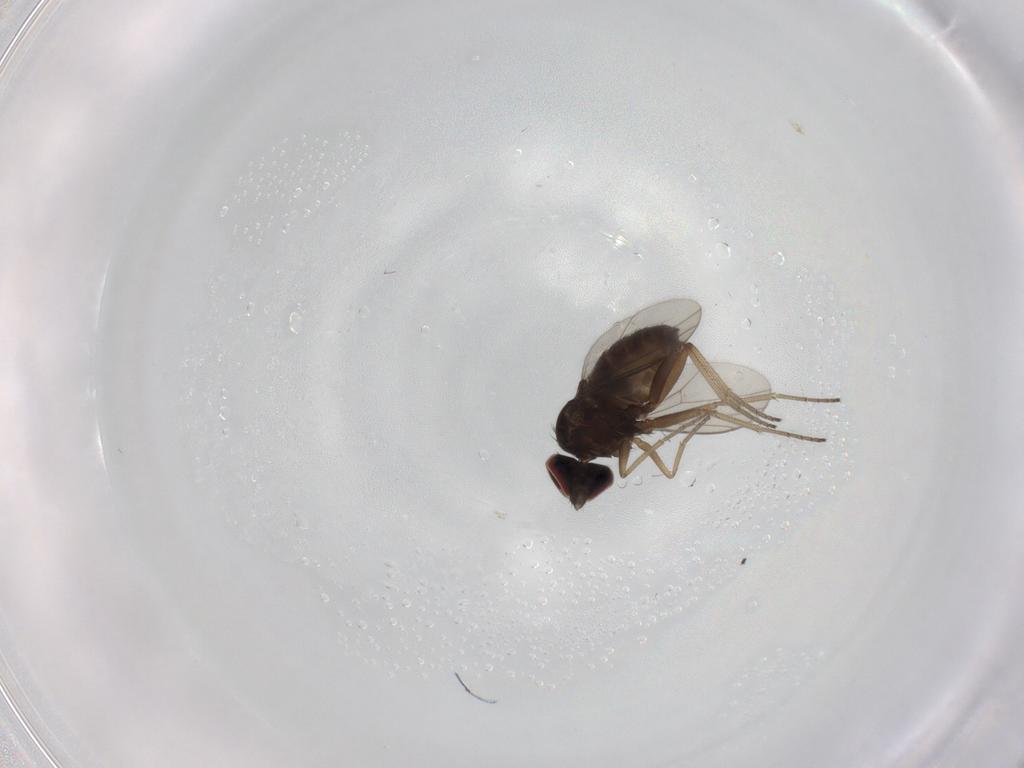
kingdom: Animalia
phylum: Arthropoda
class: Insecta
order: Diptera
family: Dolichopodidae
